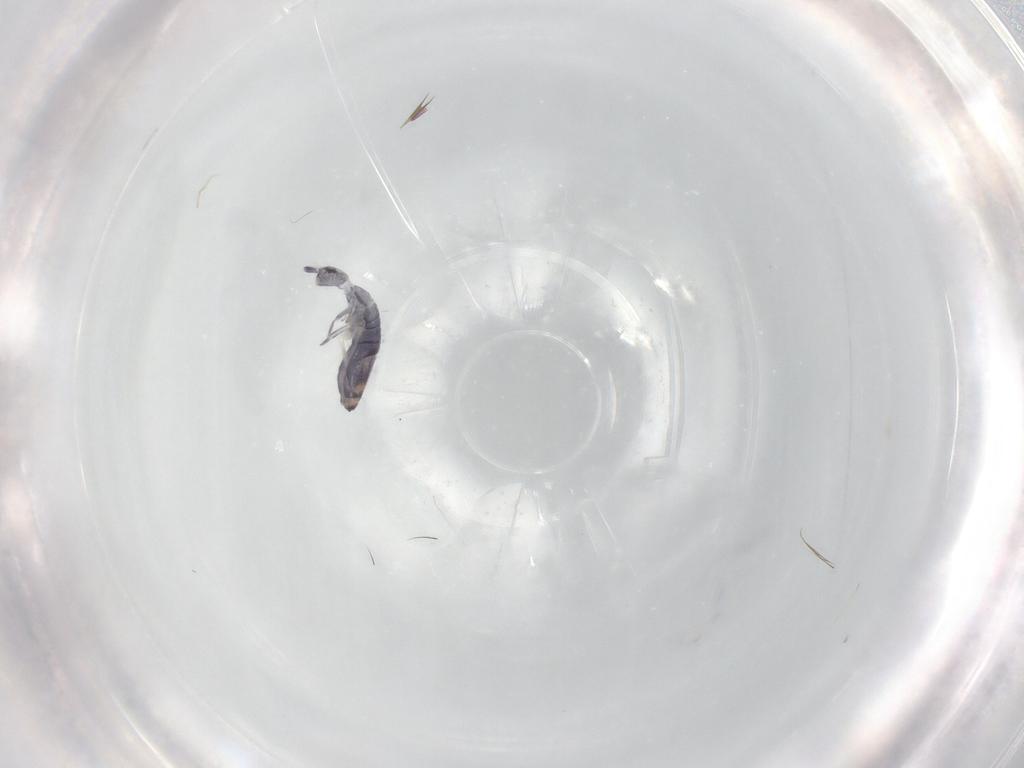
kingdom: Animalia
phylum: Arthropoda
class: Collembola
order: Entomobryomorpha
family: Entomobryidae
